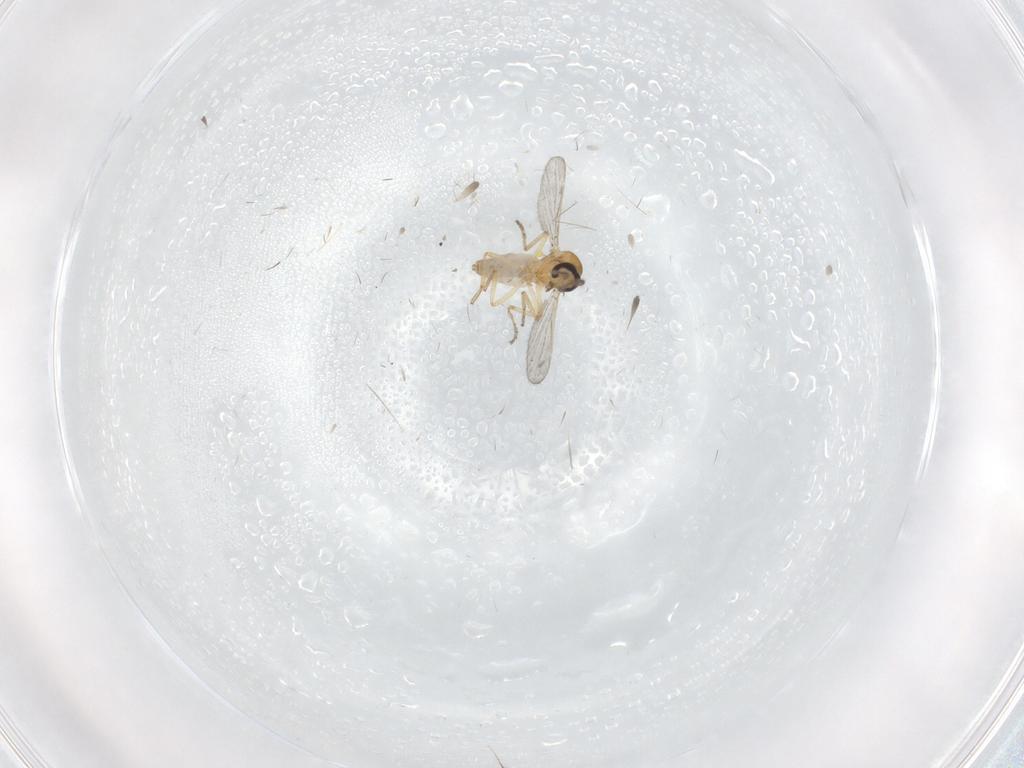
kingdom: Animalia
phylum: Arthropoda
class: Insecta
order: Diptera
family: Ceratopogonidae
